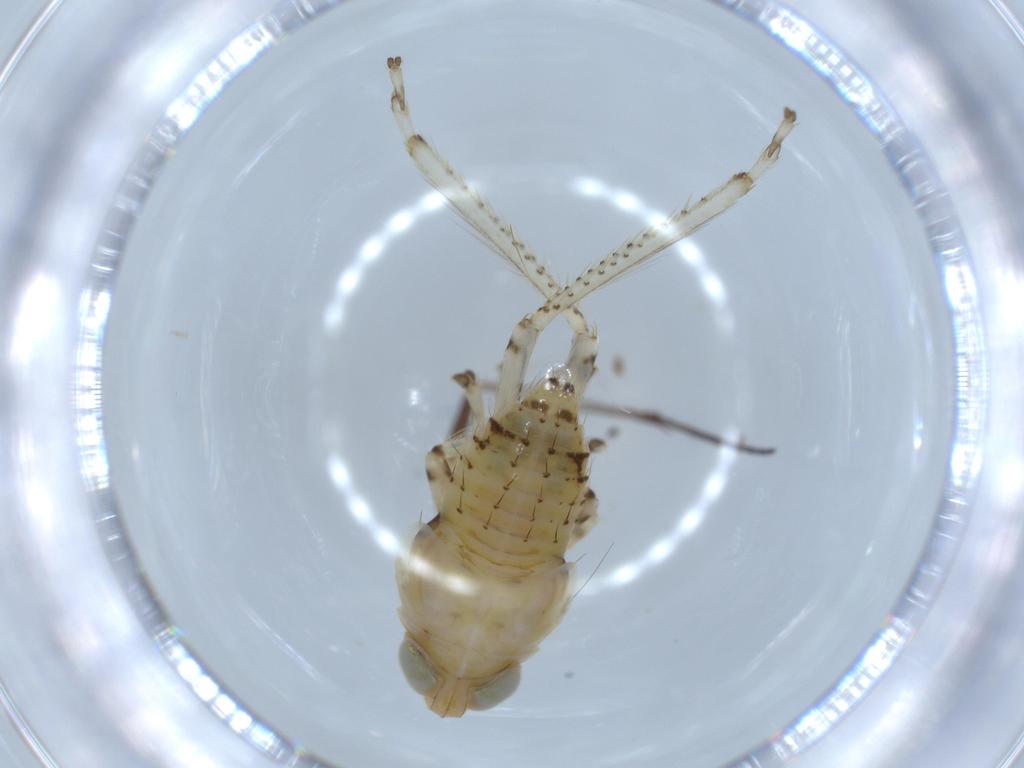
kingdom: Animalia
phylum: Arthropoda
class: Insecta
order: Hemiptera
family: Cicadellidae
